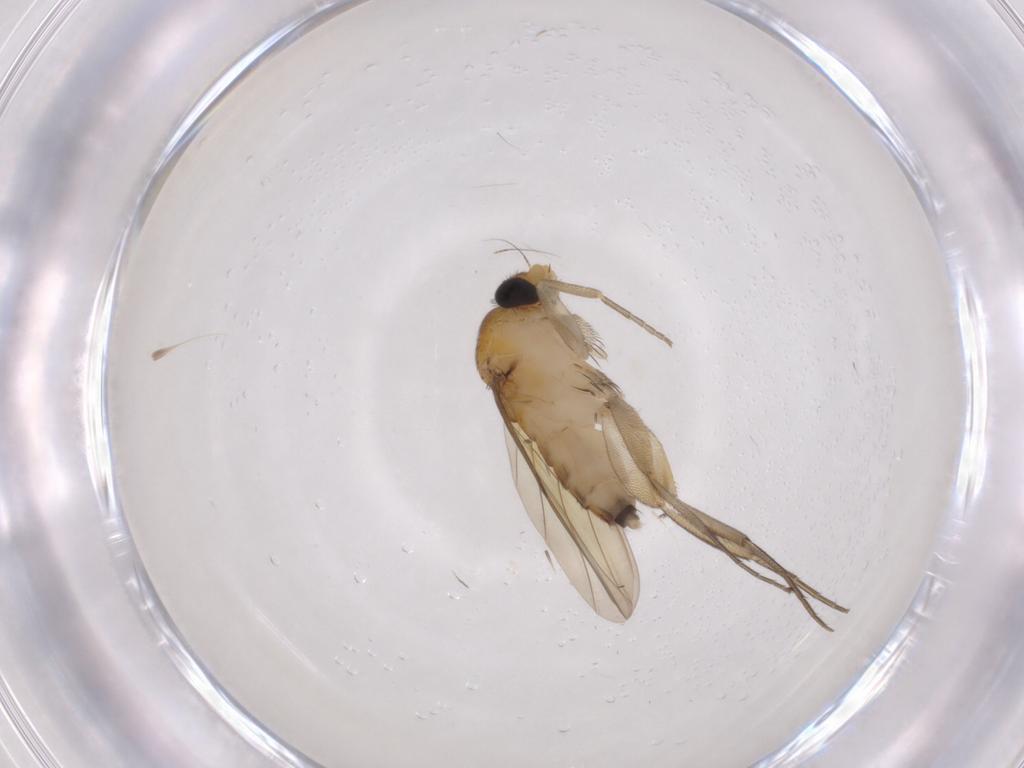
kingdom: Animalia
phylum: Arthropoda
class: Insecta
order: Diptera
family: Phoridae
